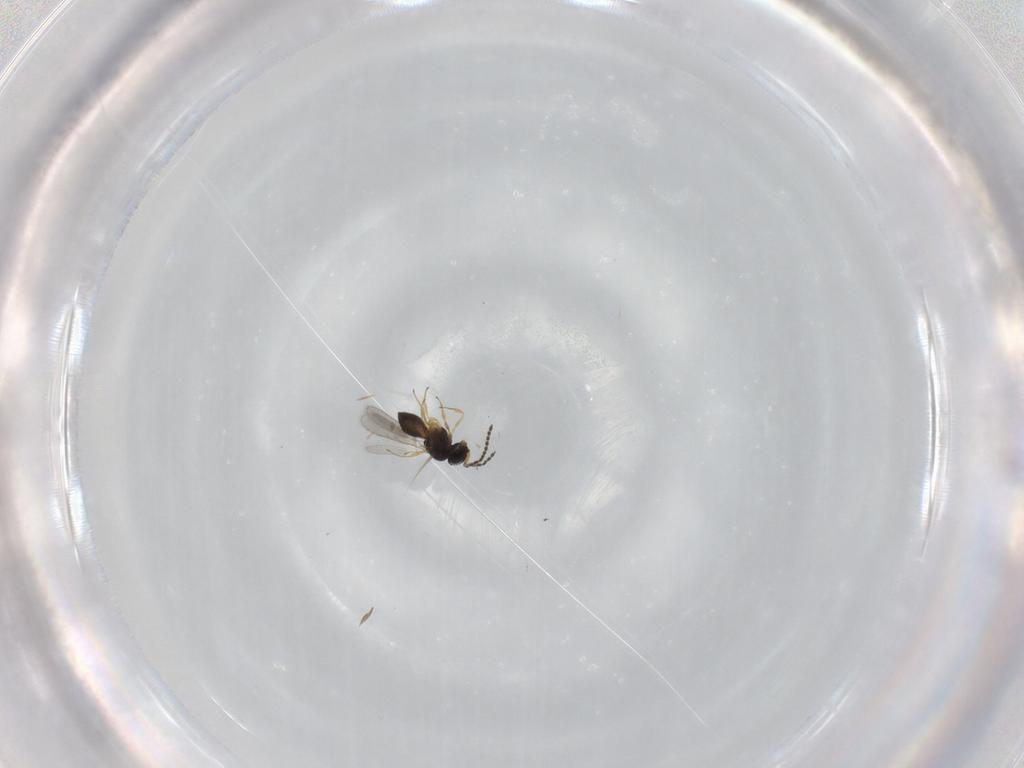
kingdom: Animalia
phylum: Arthropoda
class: Insecta
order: Hymenoptera
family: Scelionidae
